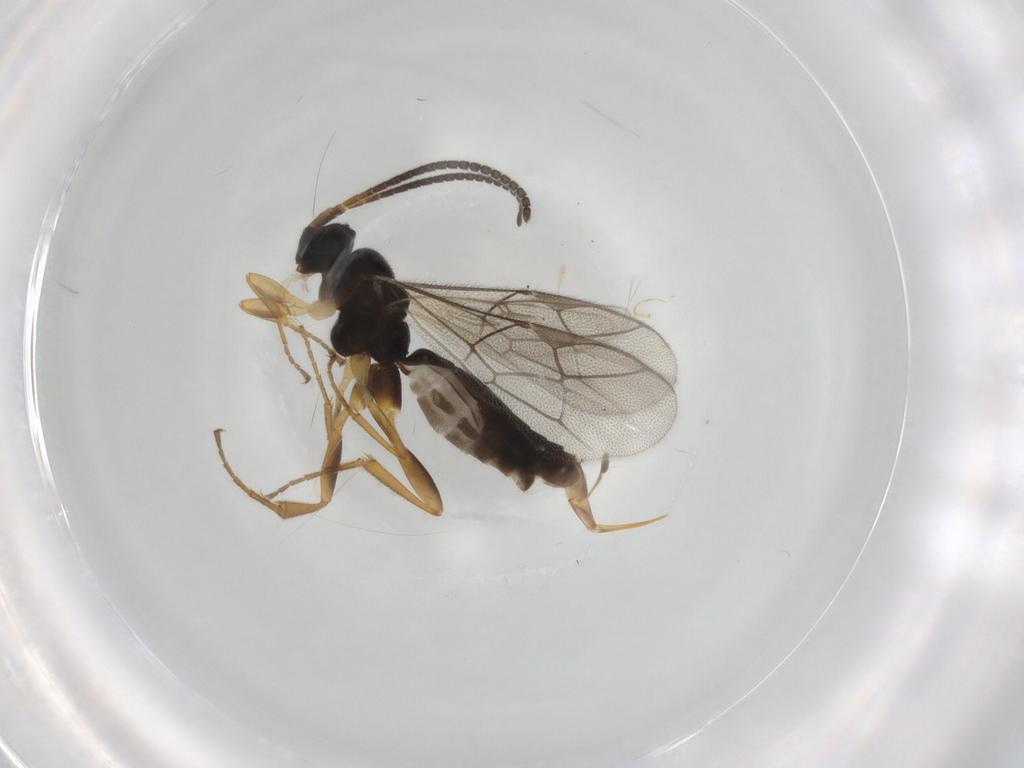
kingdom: Animalia
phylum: Arthropoda
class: Insecta
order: Hymenoptera
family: Ichneumonidae
